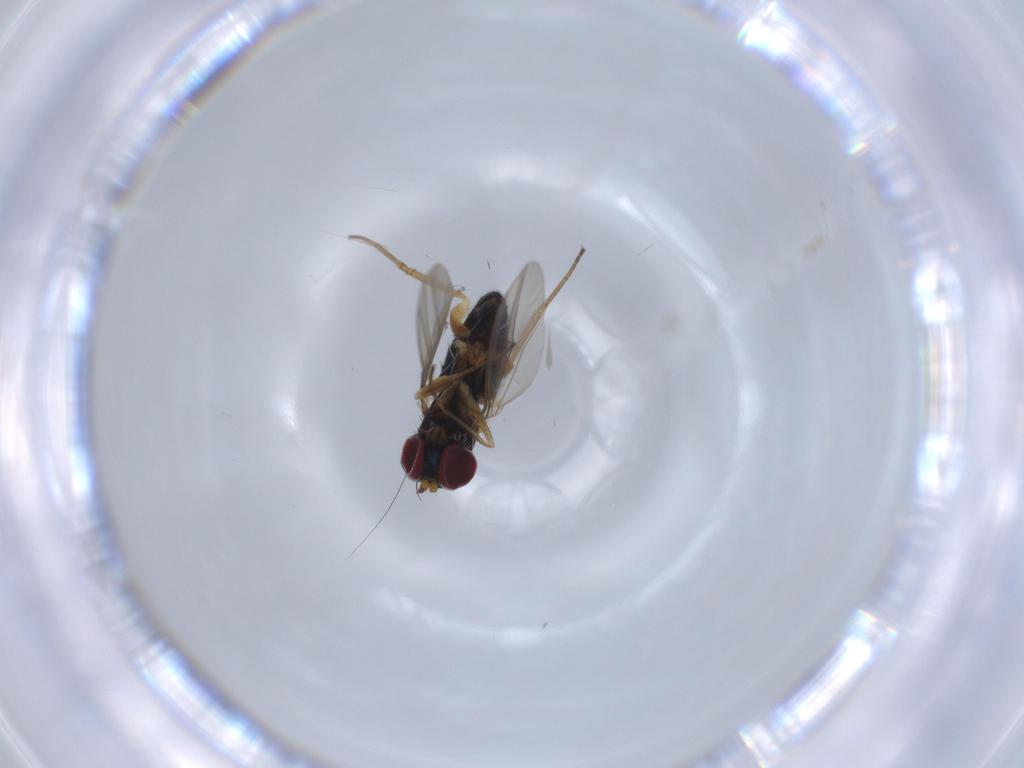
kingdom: Animalia
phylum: Arthropoda
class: Insecta
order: Diptera
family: Dolichopodidae
